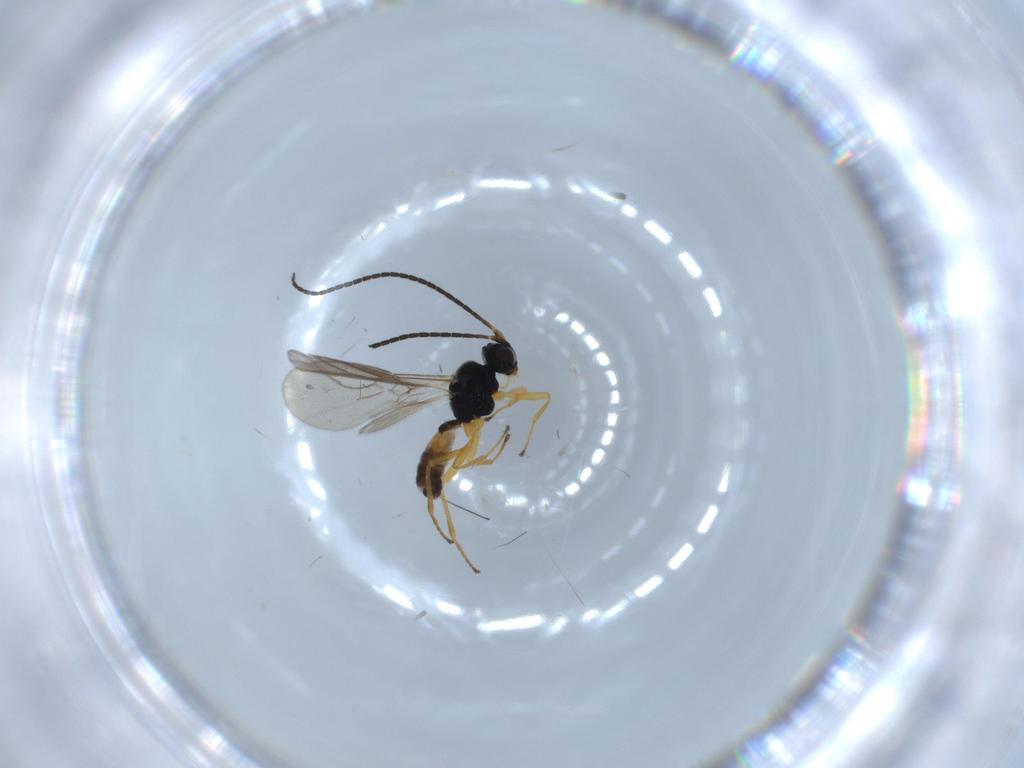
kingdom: Animalia
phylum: Arthropoda
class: Insecta
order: Hymenoptera
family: Braconidae
